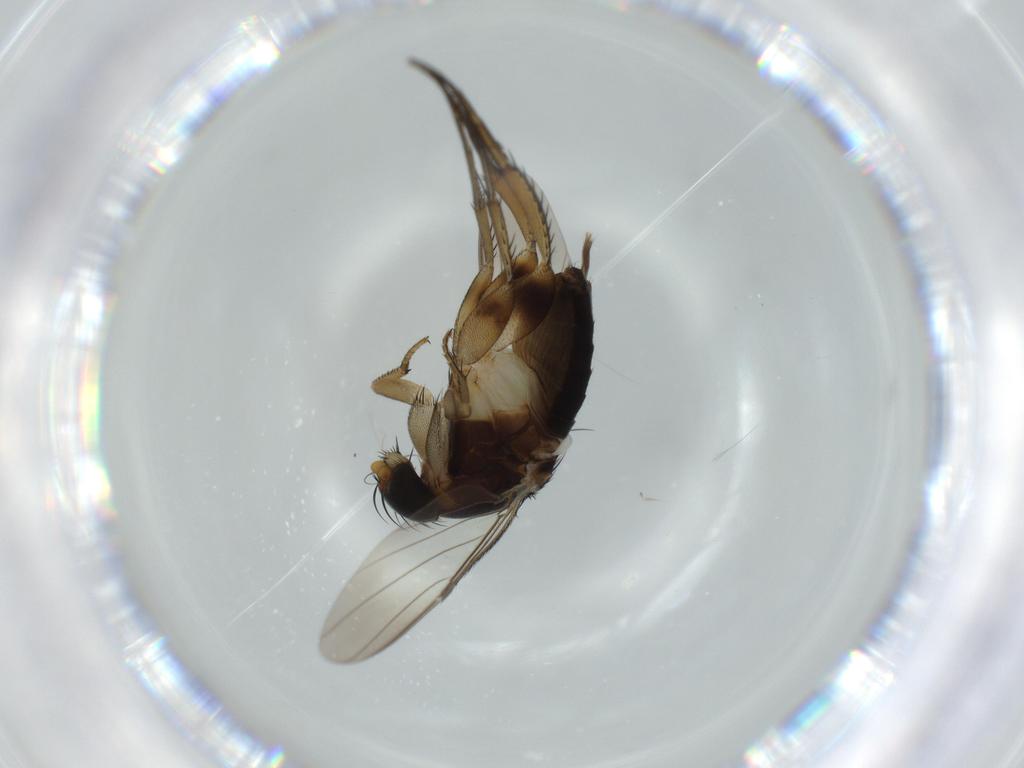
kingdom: Animalia
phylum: Arthropoda
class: Insecta
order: Diptera
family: Phoridae
